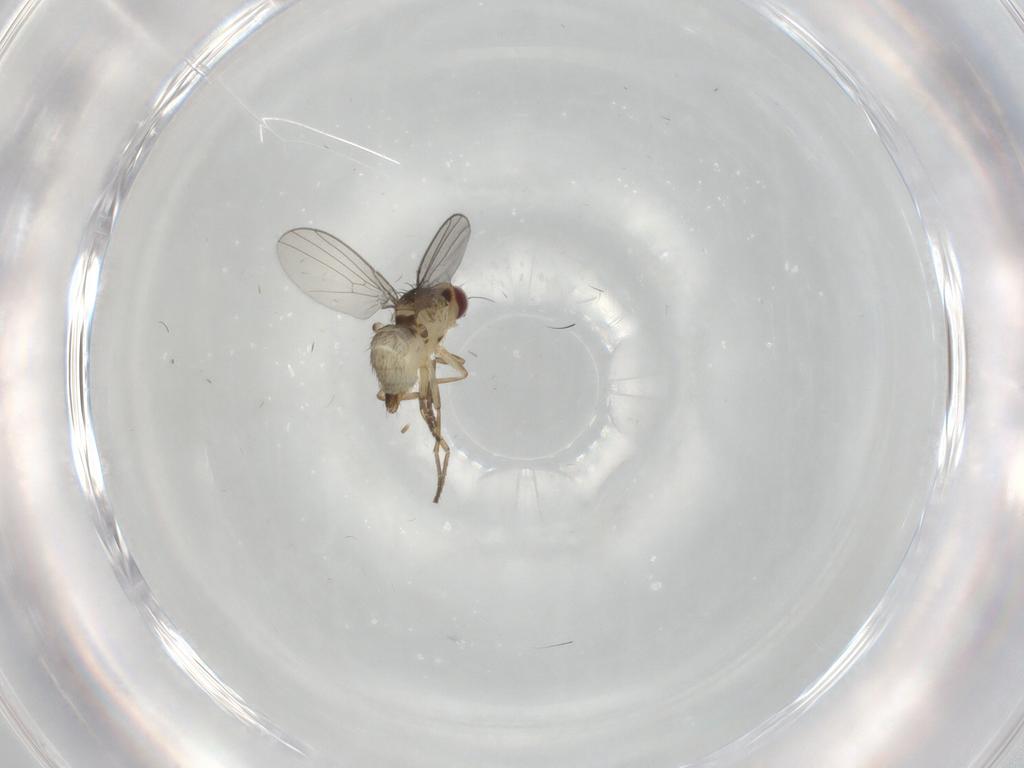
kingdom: Animalia
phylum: Arthropoda
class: Insecta
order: Diptera
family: Agromyzidae
